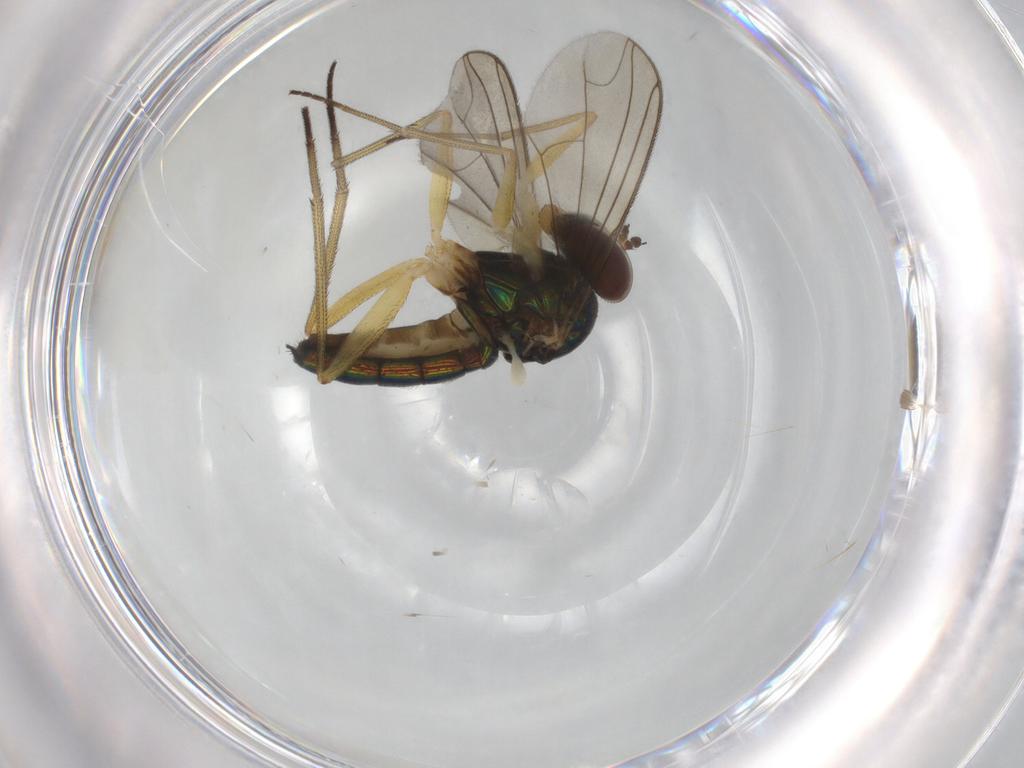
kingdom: Animalia
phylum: Arthropoda
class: Insecta
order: Diptera
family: Dolichopodidae
